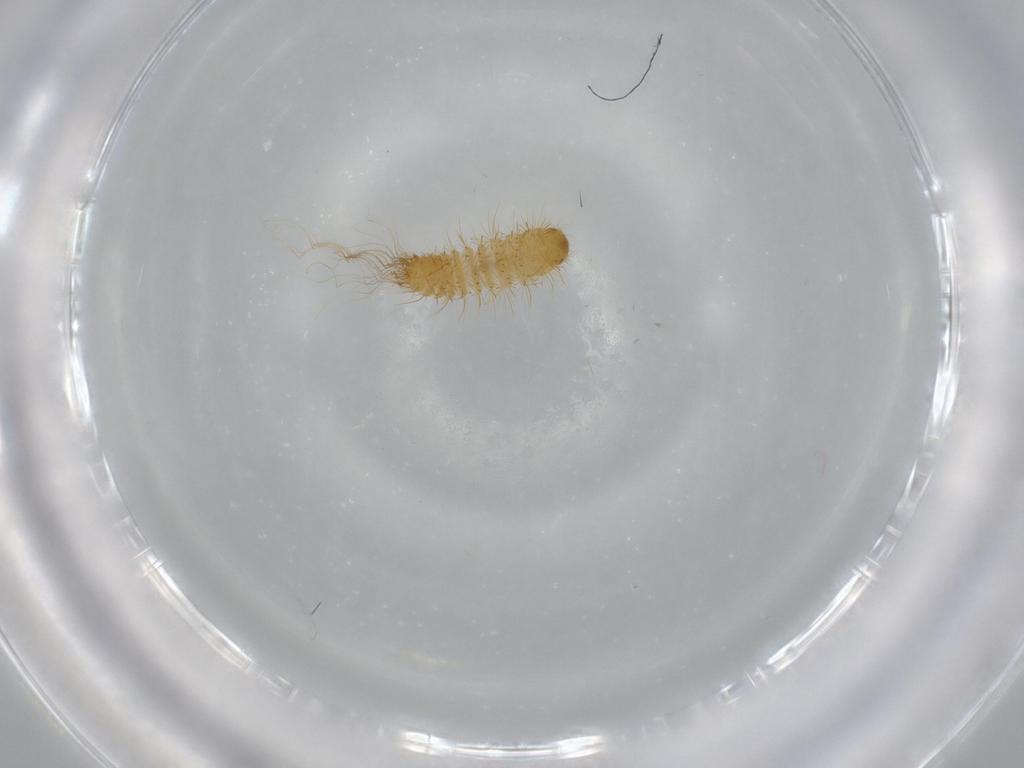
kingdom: Animalia
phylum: Arthropoda
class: Insecta
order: Coleoptera
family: Dermestidae
